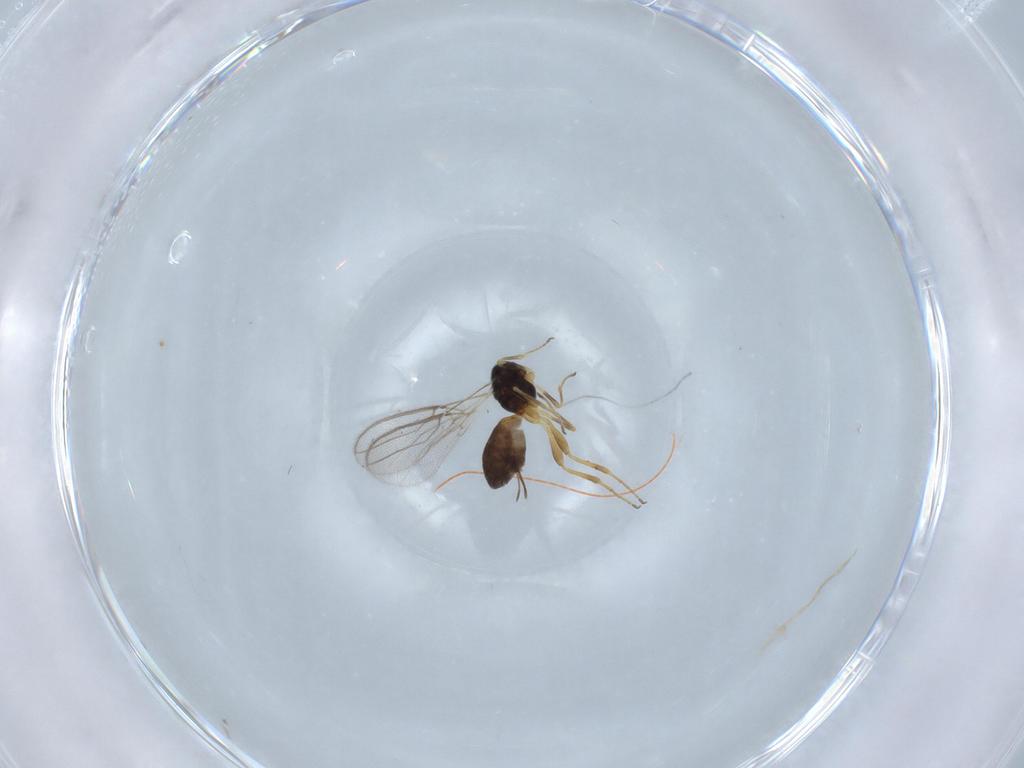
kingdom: Animalia
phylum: Arthropoda
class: Insecta
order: Hymenoptera
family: Braconidae
